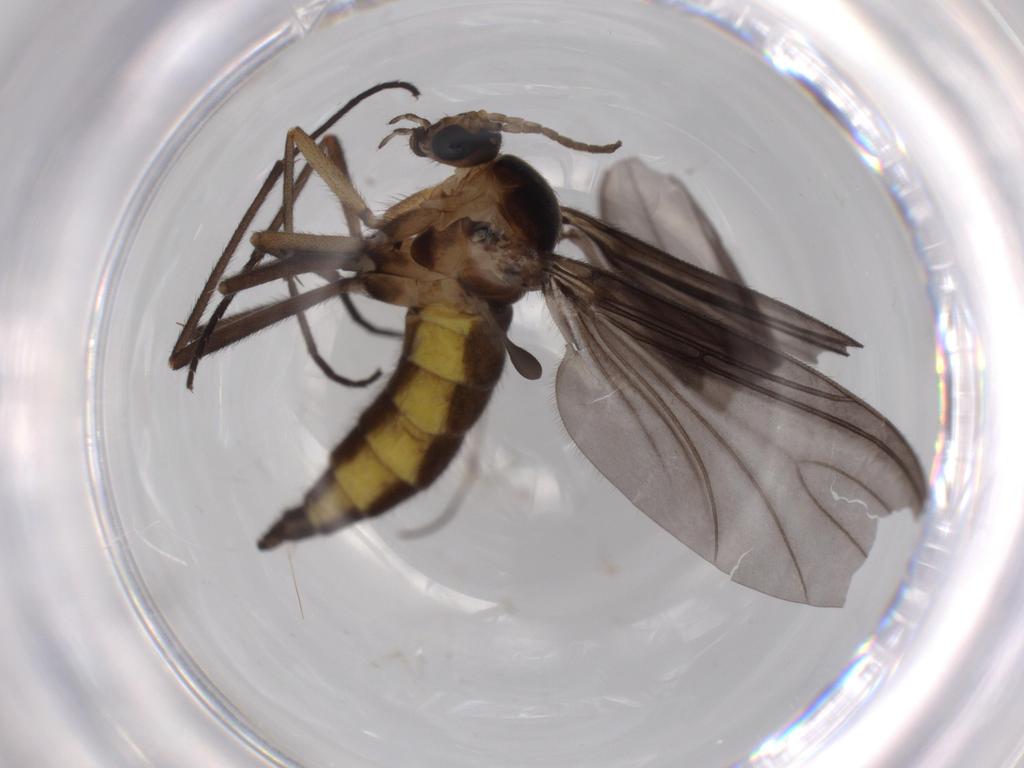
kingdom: Animalia
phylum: Arthropoda
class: Insecta
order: Diptera
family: Sciaridae
